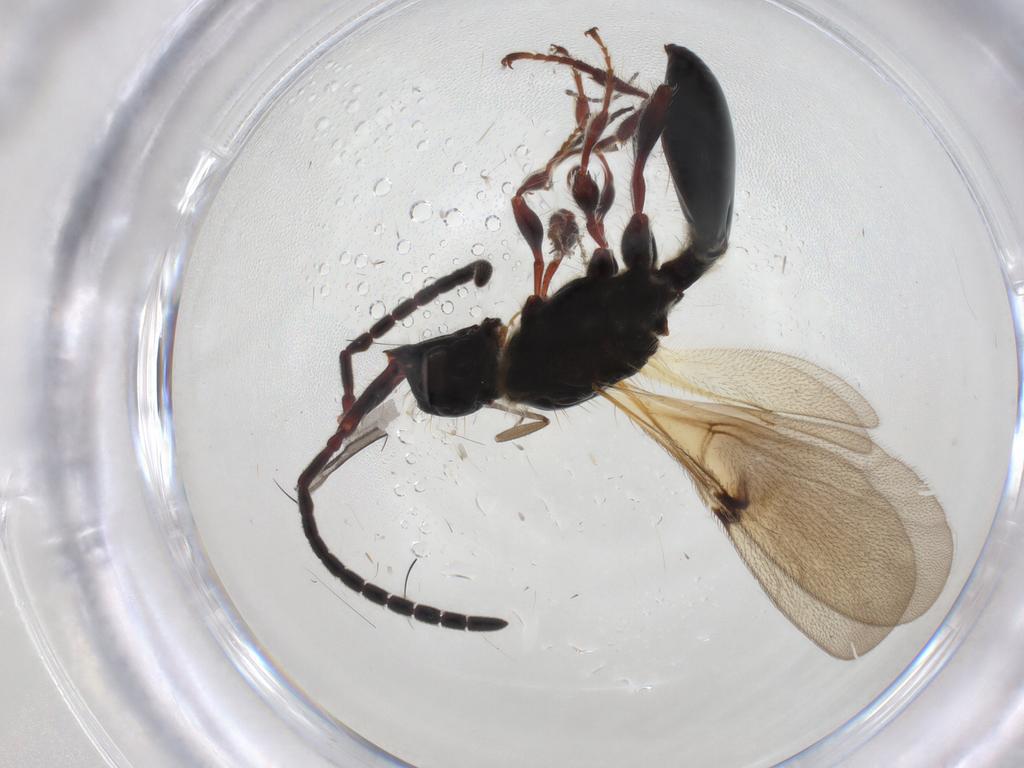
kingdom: Animalia
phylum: Arthropoda
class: Insecta
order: Hymenoptera
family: Diapriidae
